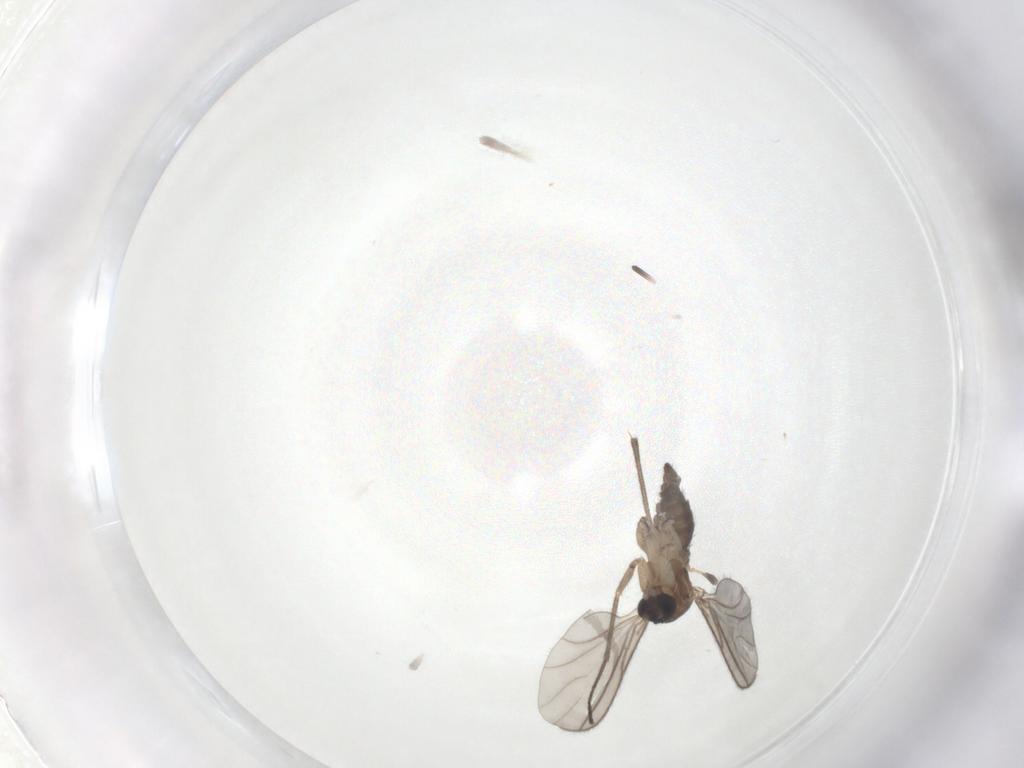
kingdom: Animalia
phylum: Arthropoda
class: Insecta
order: Diptera
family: Sciaridae
